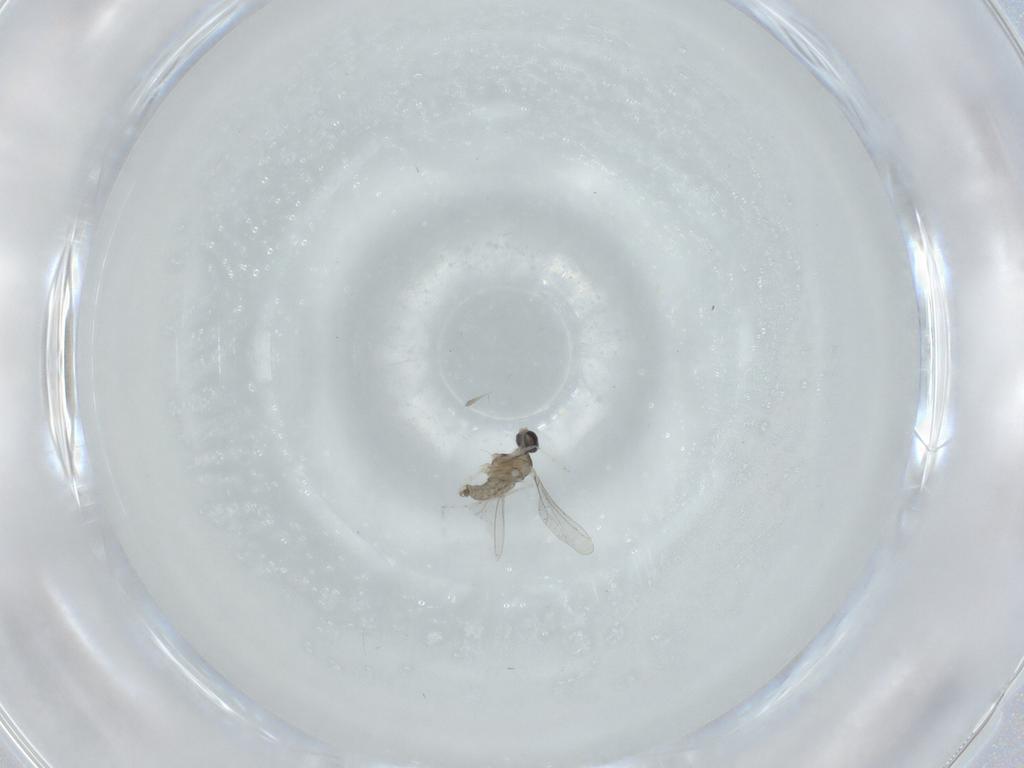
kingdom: Animalia
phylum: Arthropoda
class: Insecta
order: Diptera
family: Cecidomyiidae
